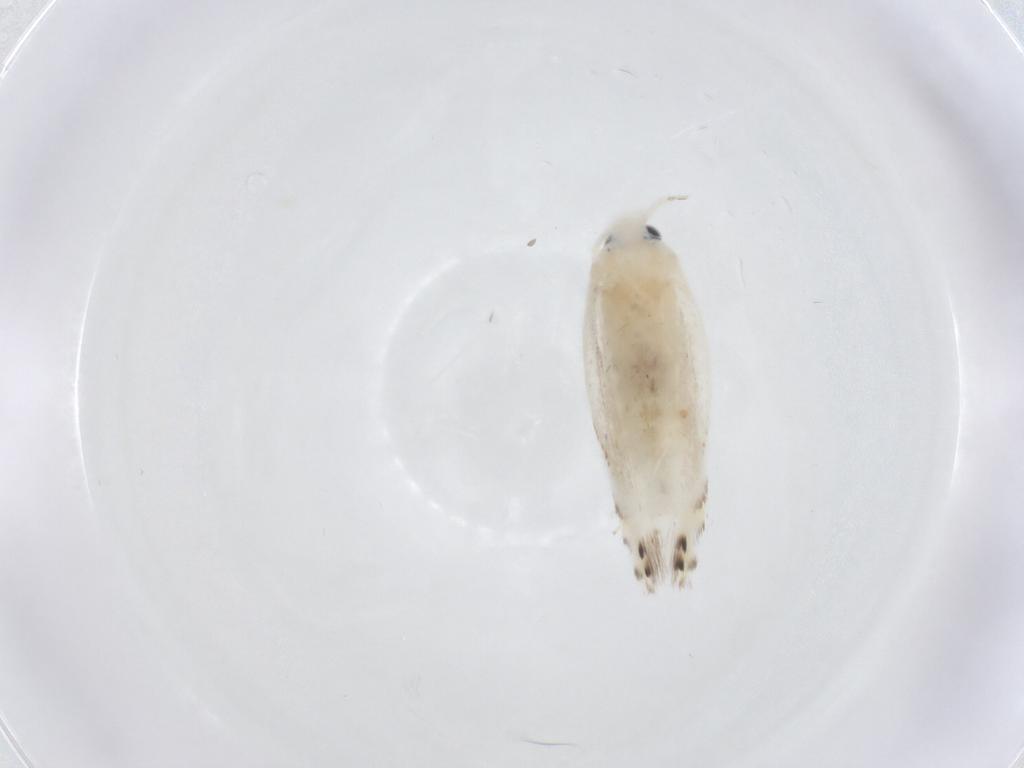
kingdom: Animalia
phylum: Arthropoda
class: Insecta
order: Lepidoptera
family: Gelechiidae
